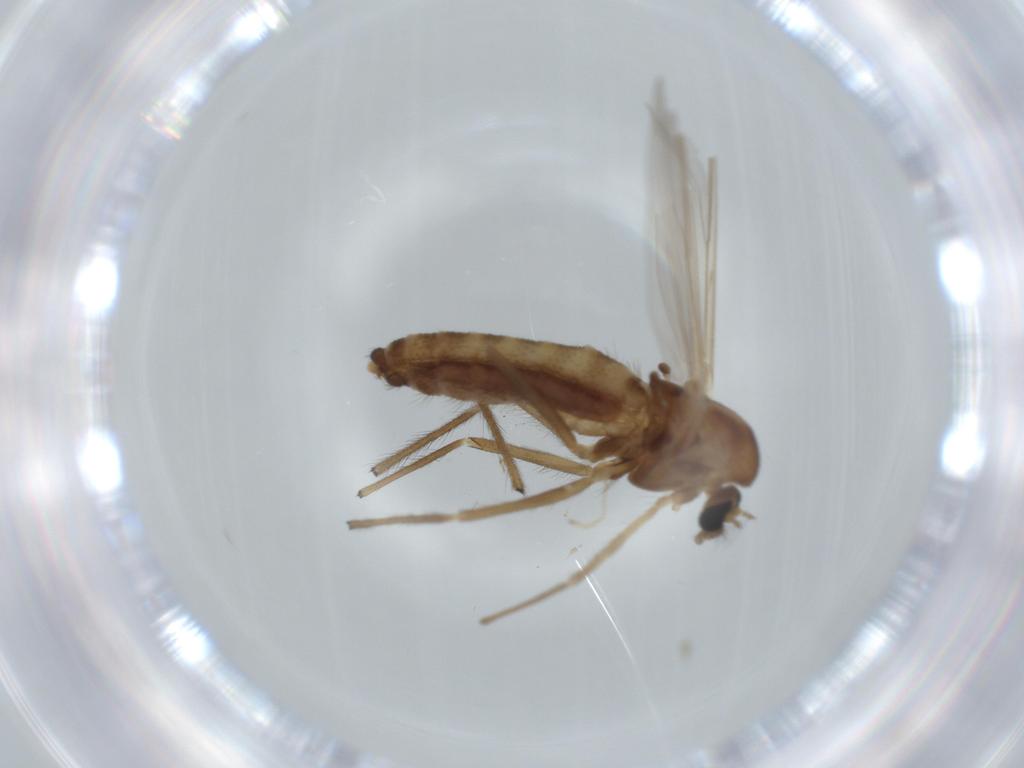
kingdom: Animalia
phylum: Arthropoda
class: Insecta
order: Diptera
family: Chironomidae
